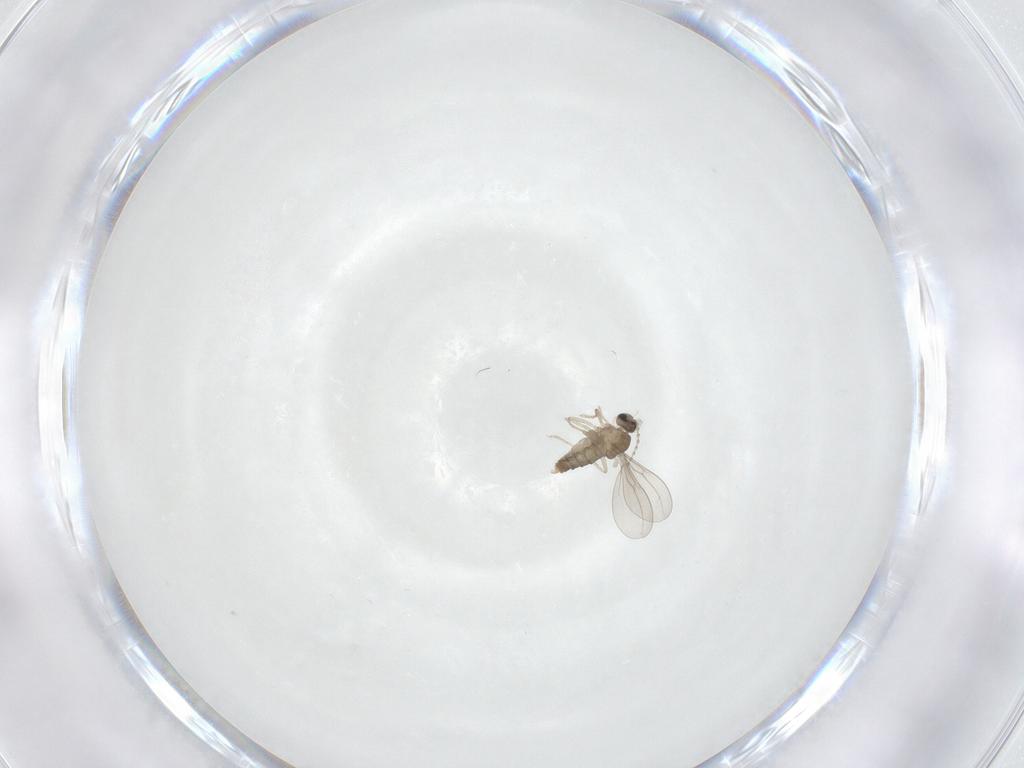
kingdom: Animalia
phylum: Arthropoda
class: Insecta
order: Diptera
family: Cecidomyiidae
